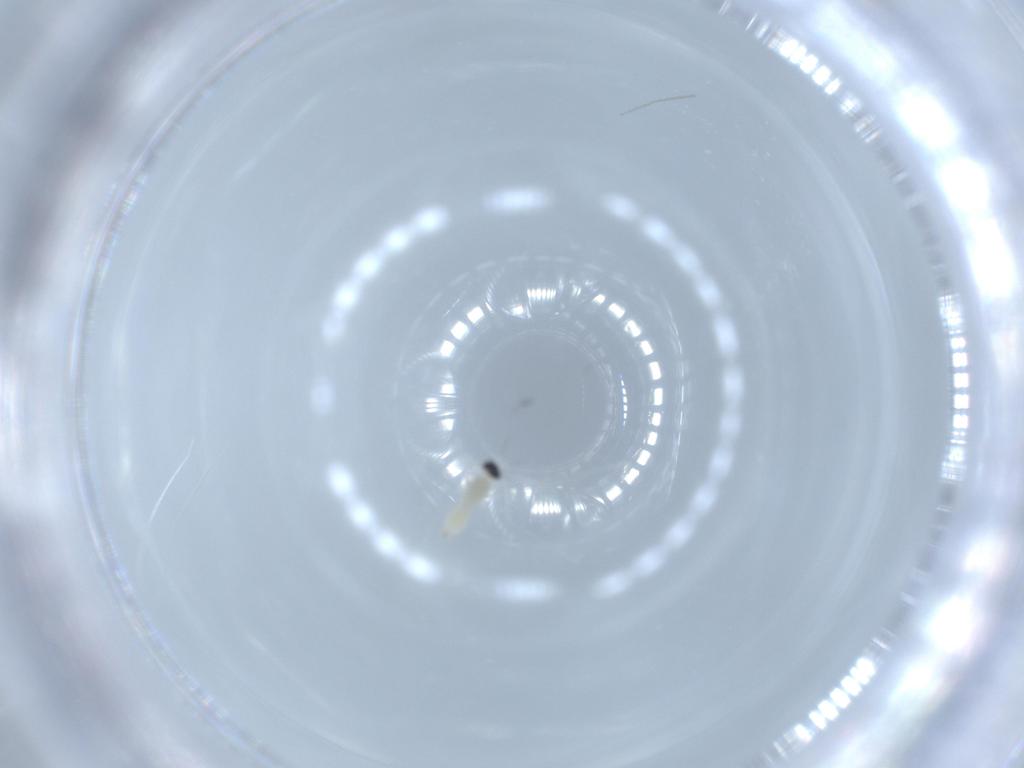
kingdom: Animalia
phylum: Arthropoda
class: Insecta
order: Diptera
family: Cecidomyiidae
